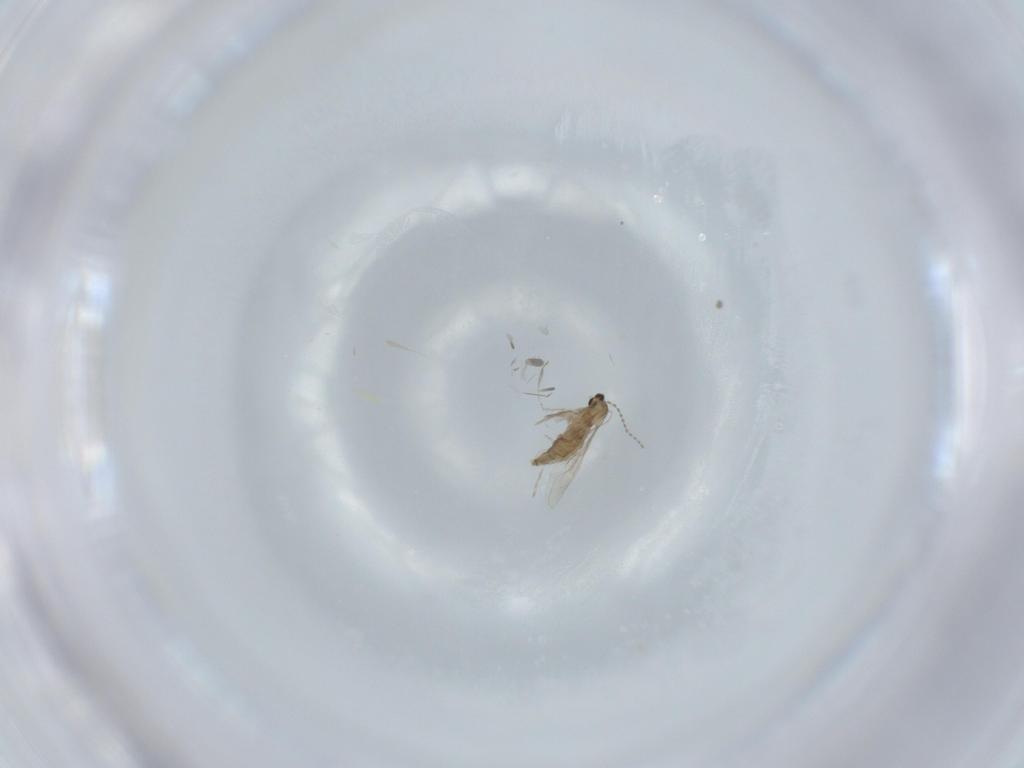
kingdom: Animalia
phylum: Arthropoda
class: Insecta
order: Diptera
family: Cecidomyiidae
